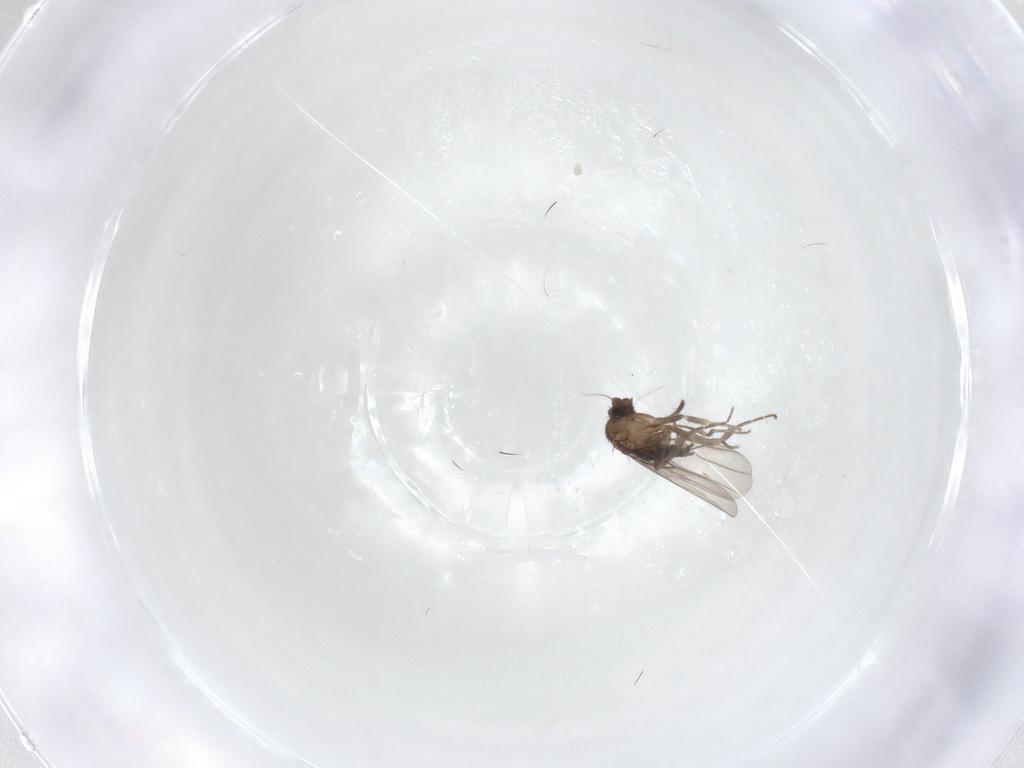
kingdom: Animalia
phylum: Arthropoda
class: Insecta
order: Diptera
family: Cecidomyiidae
